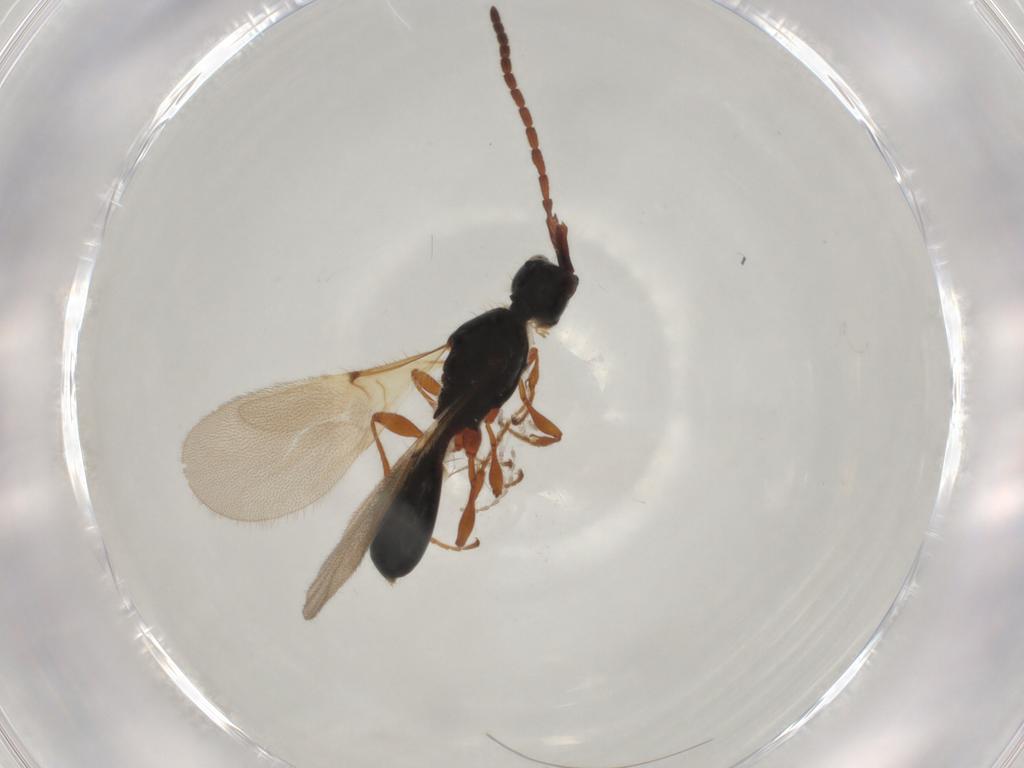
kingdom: Animalia
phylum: Arthropoda
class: Insecta
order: Hymenoptera
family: Diapriidae
